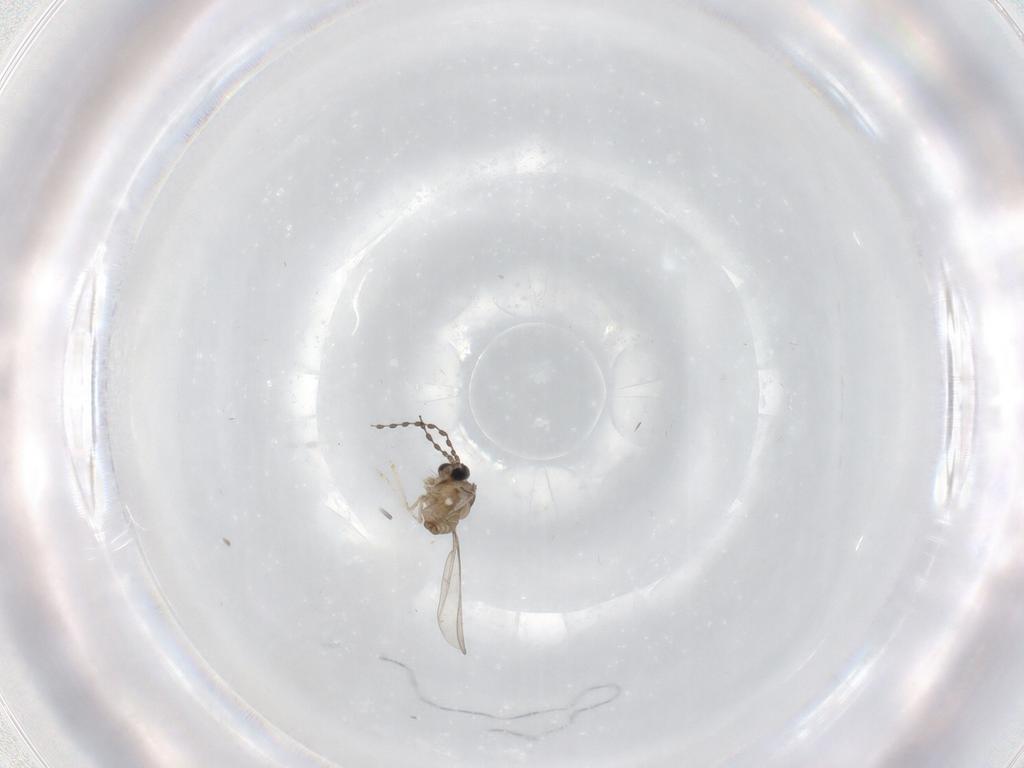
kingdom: Animalia
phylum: Arthropoda
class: Insecta
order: Diptera
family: Cecidomyiidae
